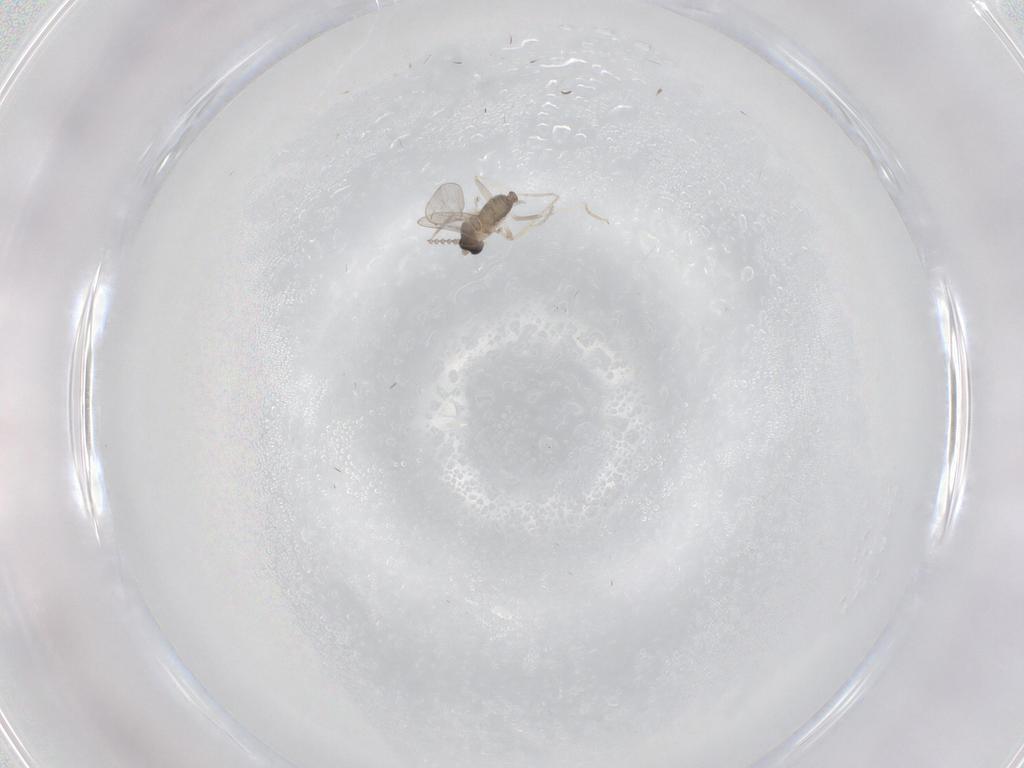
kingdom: Animalia
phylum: Arthropoda
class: Insecta
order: Diptera
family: Cecidomyiidae
